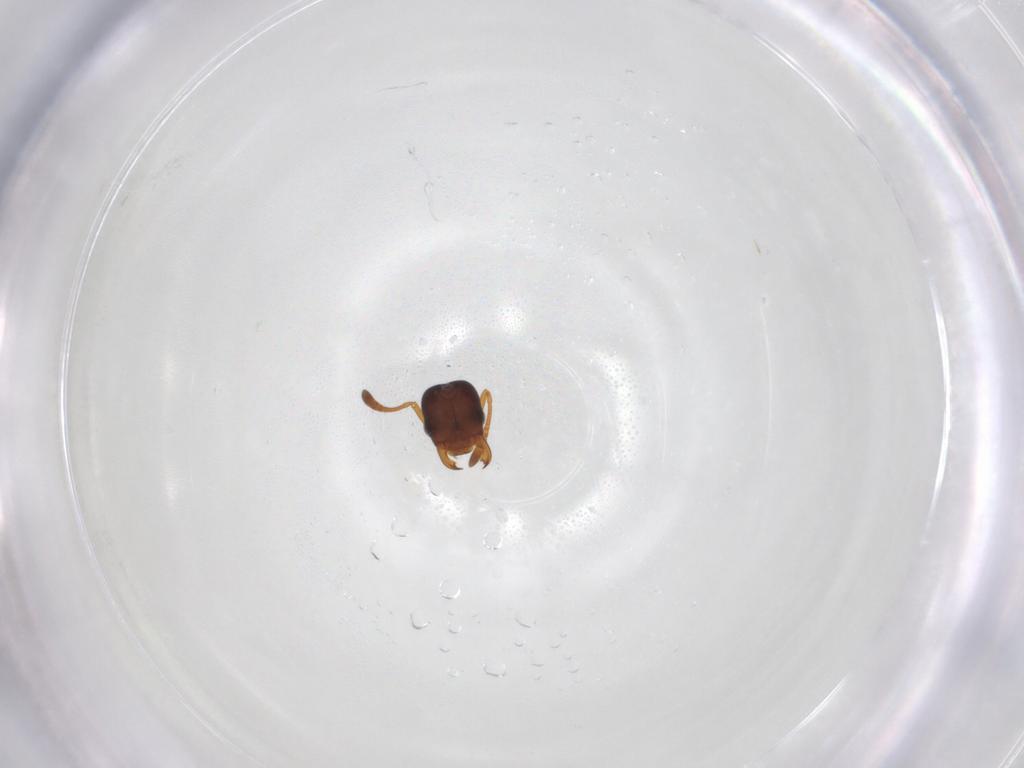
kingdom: Animalia
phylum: Arthropoda
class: Insecta
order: Hymenoptera
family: Formicidae
